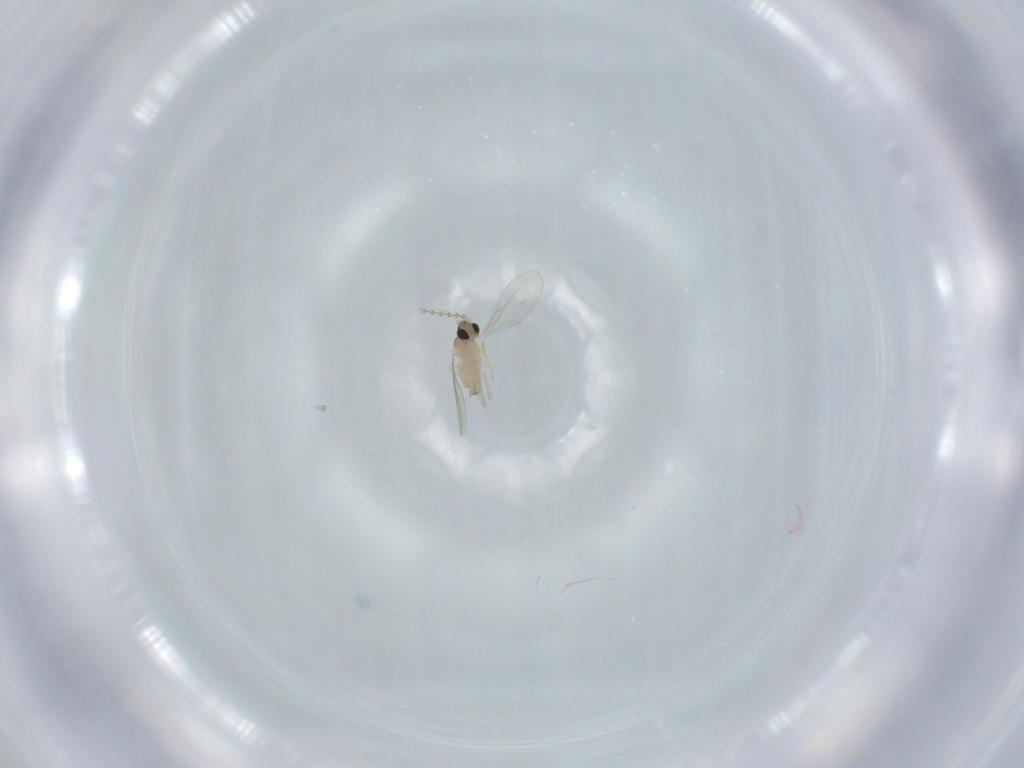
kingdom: Animalia
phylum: Arthropoda
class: Insecta
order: Diptera
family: Cecidomyiidae
